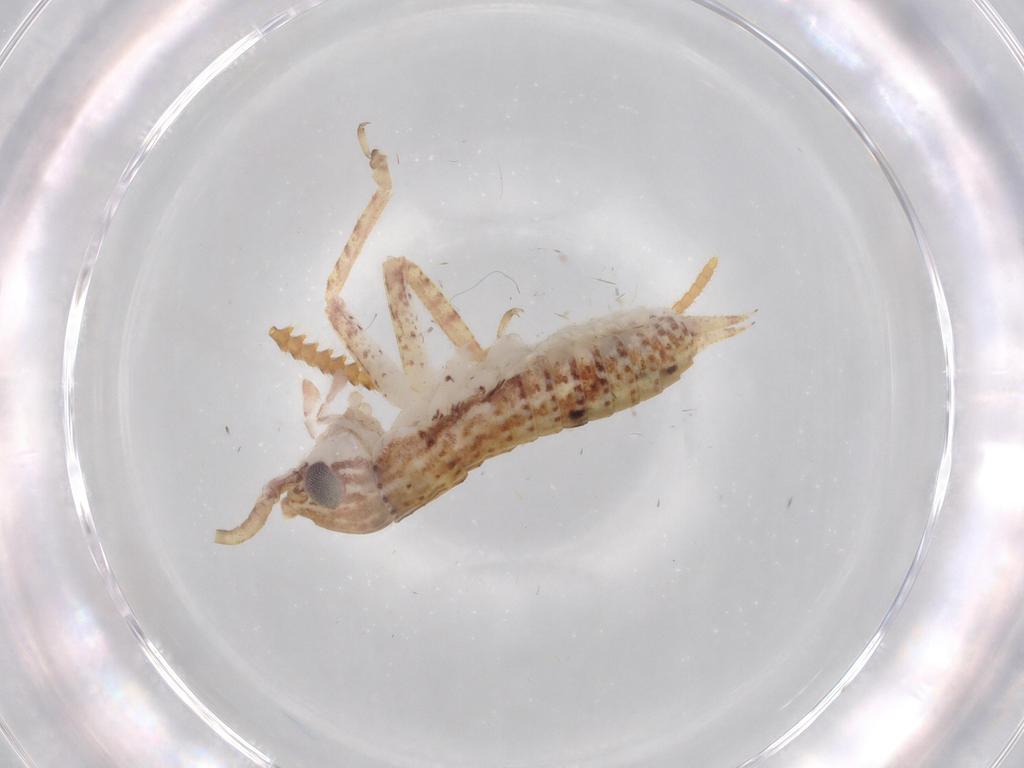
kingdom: Animalia
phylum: Arthropoda
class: Insecta
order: Orthoptera
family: Gryllidae
